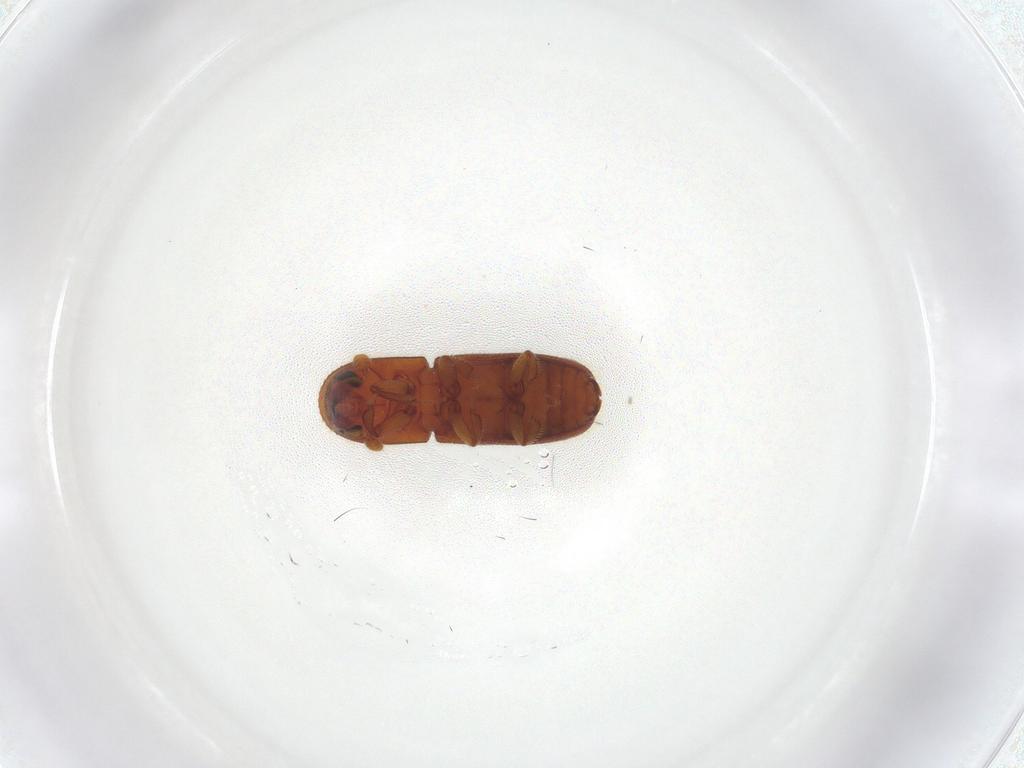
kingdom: Animalia
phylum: Arthropoda
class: Insecta
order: Coleoptera
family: Curculionidae
